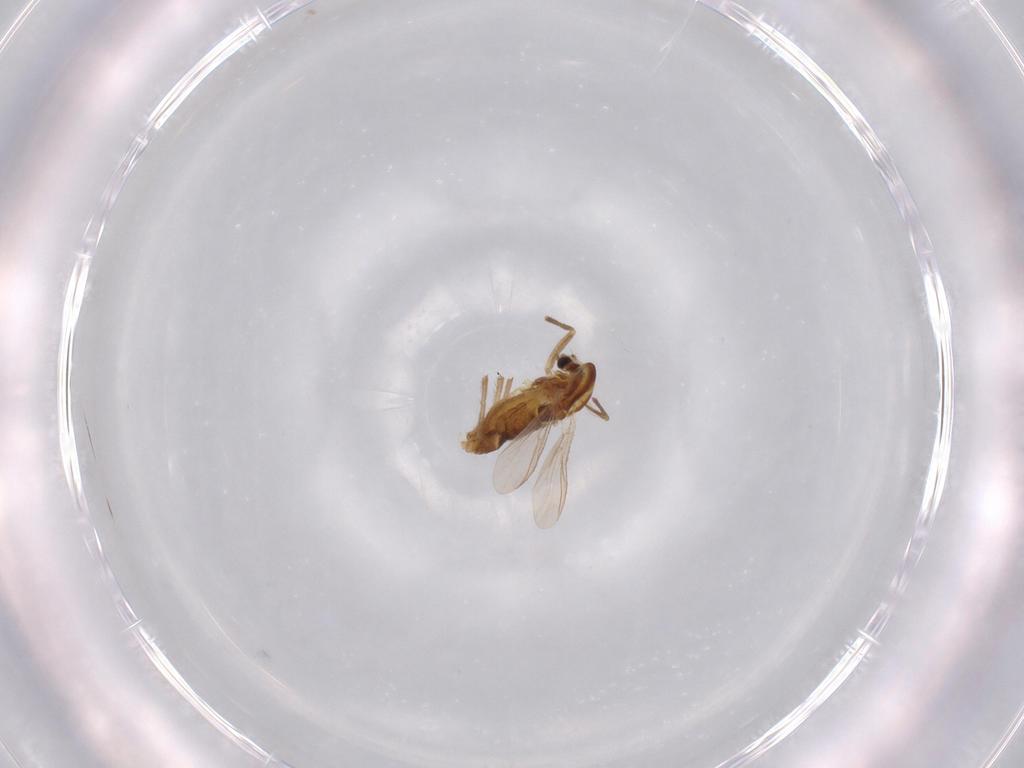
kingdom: Animalia
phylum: Arthropoda
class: Insecta
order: Diptera
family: Chironomidae
